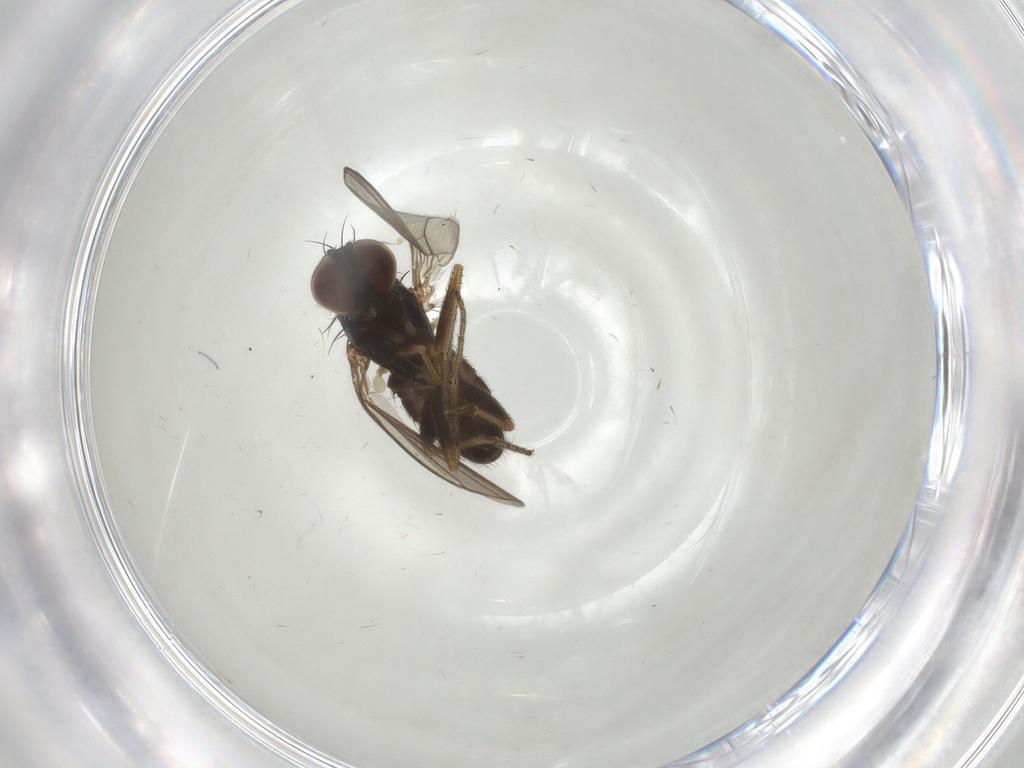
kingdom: Animalia
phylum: Arthropoda
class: Insecta
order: Diptera
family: Dolichopodidae
